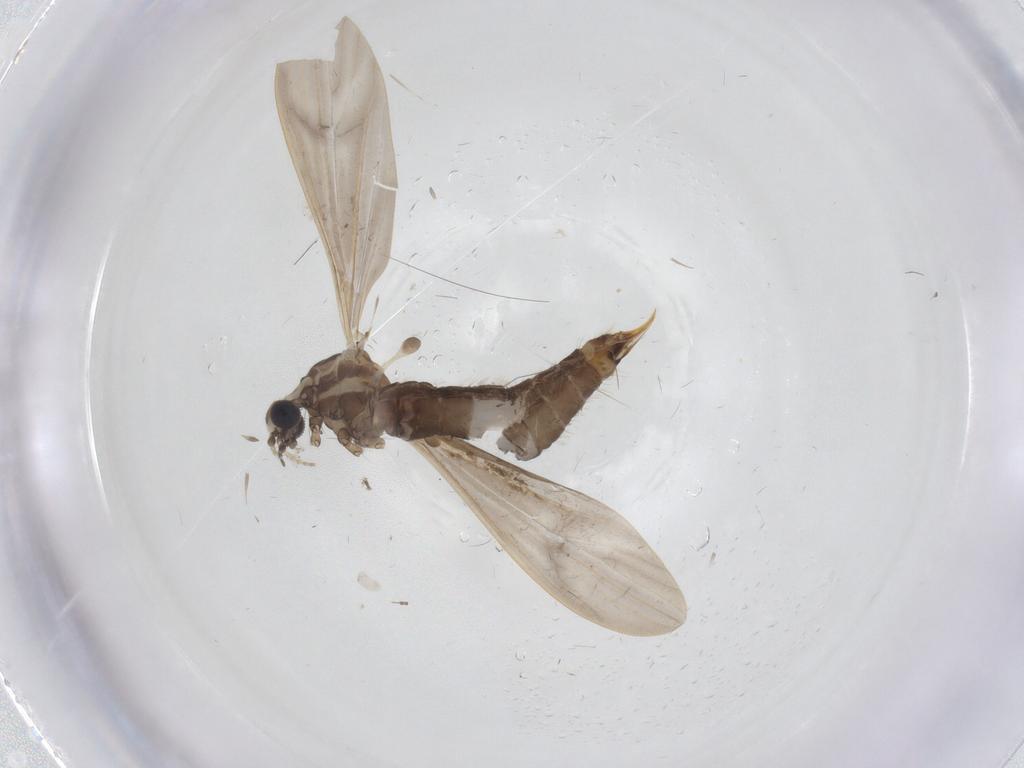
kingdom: Animalia
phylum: Arthropoda
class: Insecta
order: Diptera
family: Limoniidae
